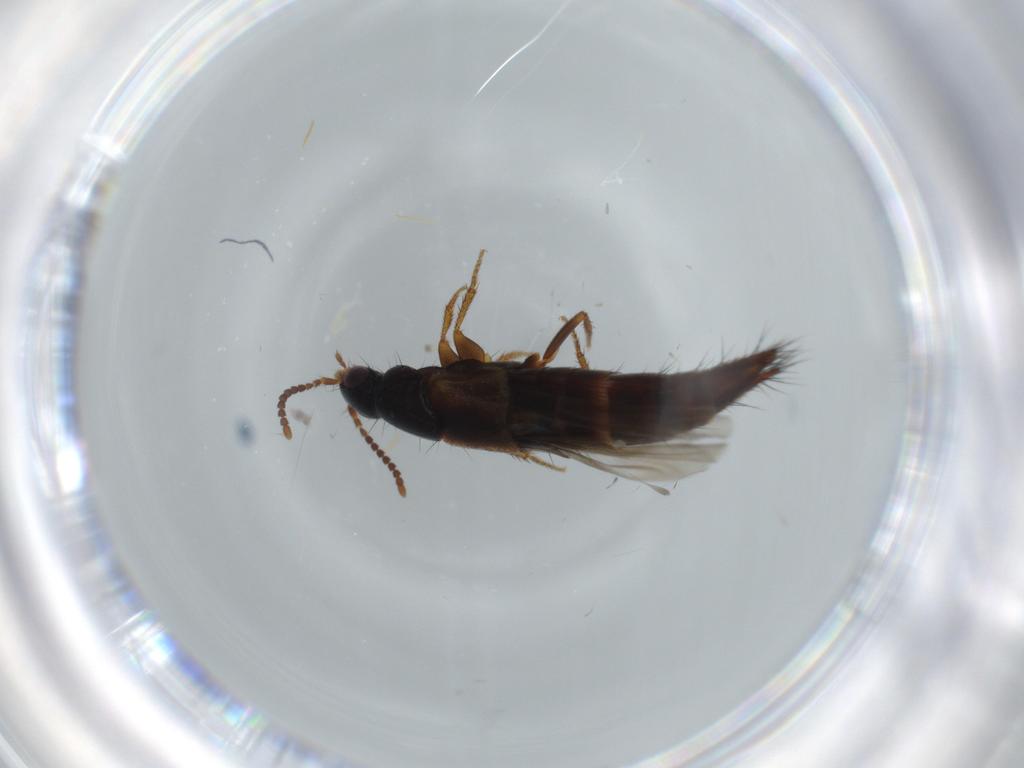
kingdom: Animalia
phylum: Arthropoda
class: Insecta
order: Coleoptera
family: Staphylinidae
